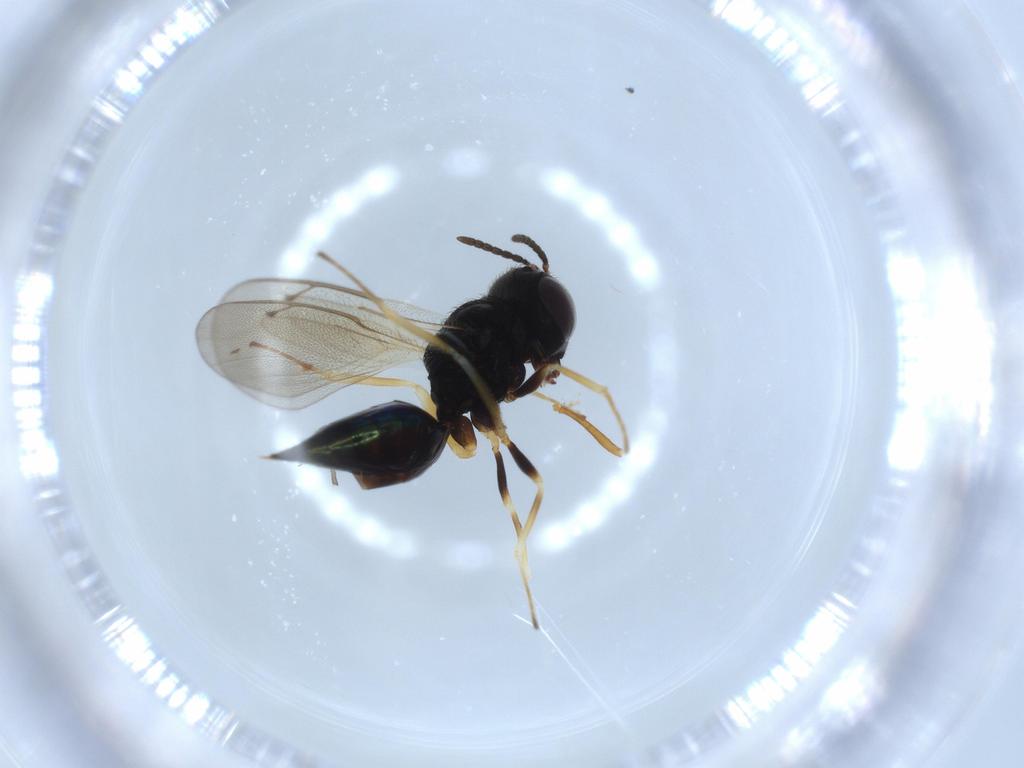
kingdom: Animalia
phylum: Arthropoda
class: Insecta
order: Hymenoptera
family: Pteromalidae
